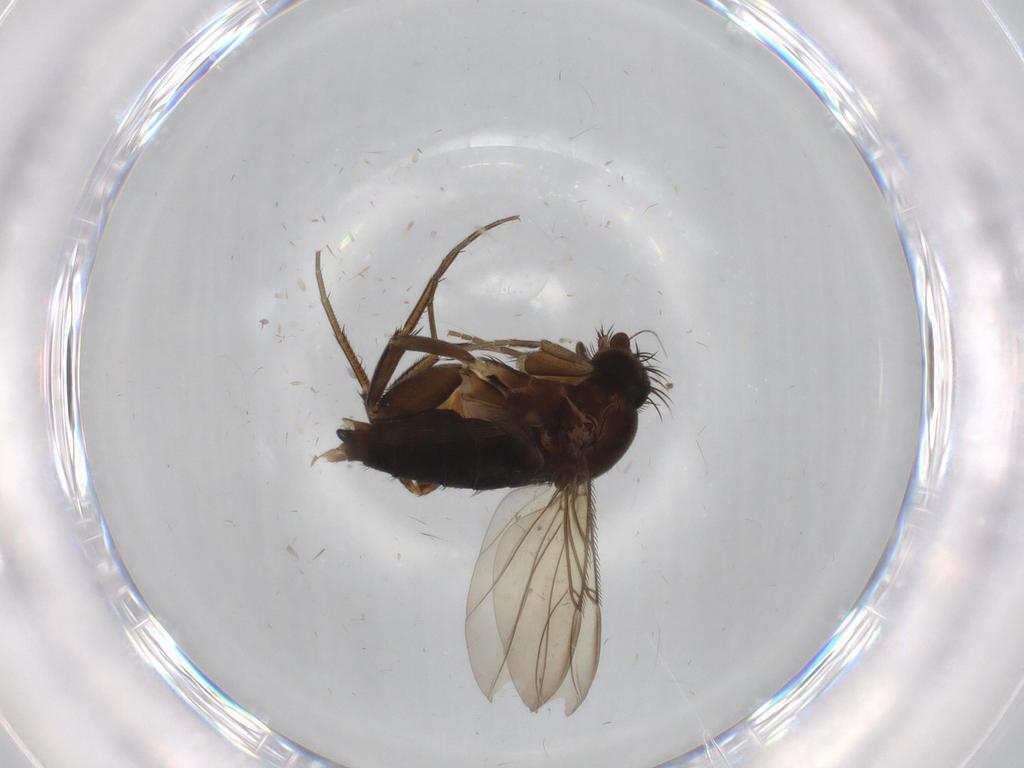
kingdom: Animalia
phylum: Arthropoda
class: Insecta
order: Diptera
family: Phoridae
